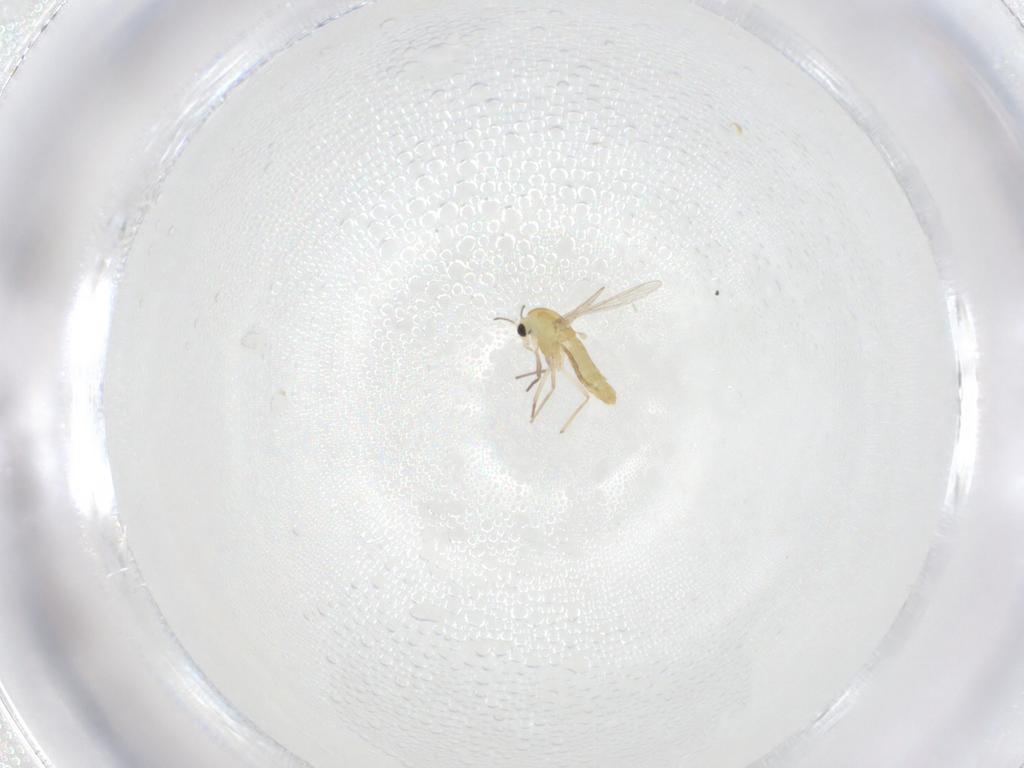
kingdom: Animalia
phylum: Arthropoda
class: Insecta
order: Diptera
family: Chironomidae
